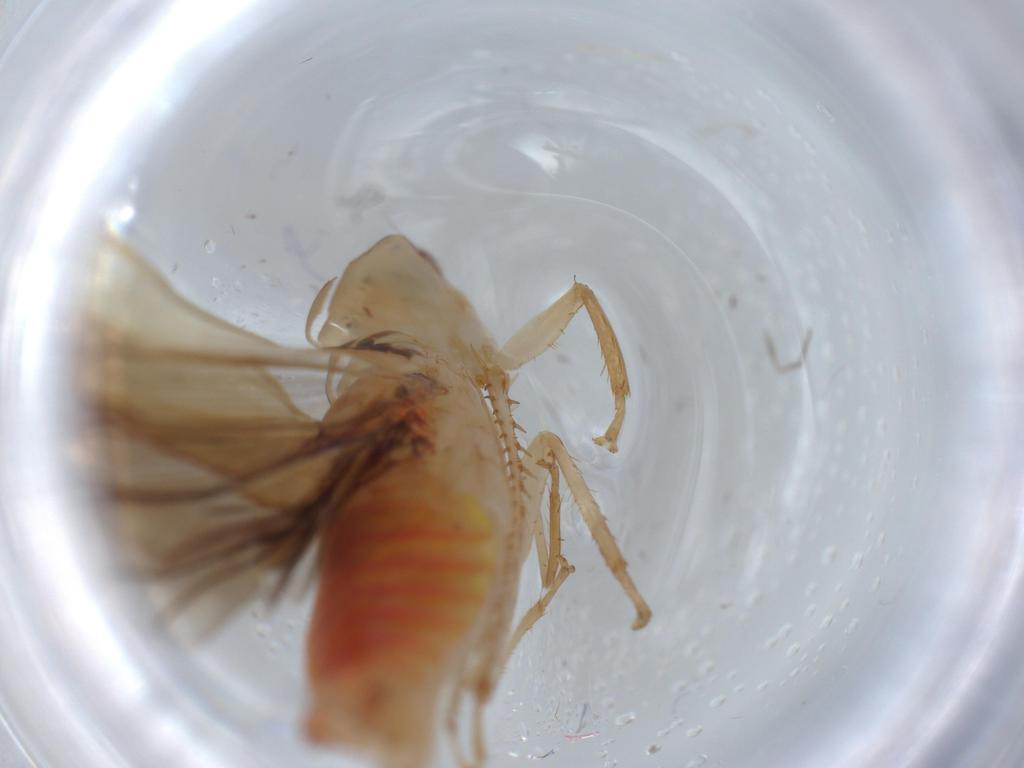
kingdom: Animalia
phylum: Arthropoda
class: Insecta
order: Hemiptera
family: Cicadellidae
